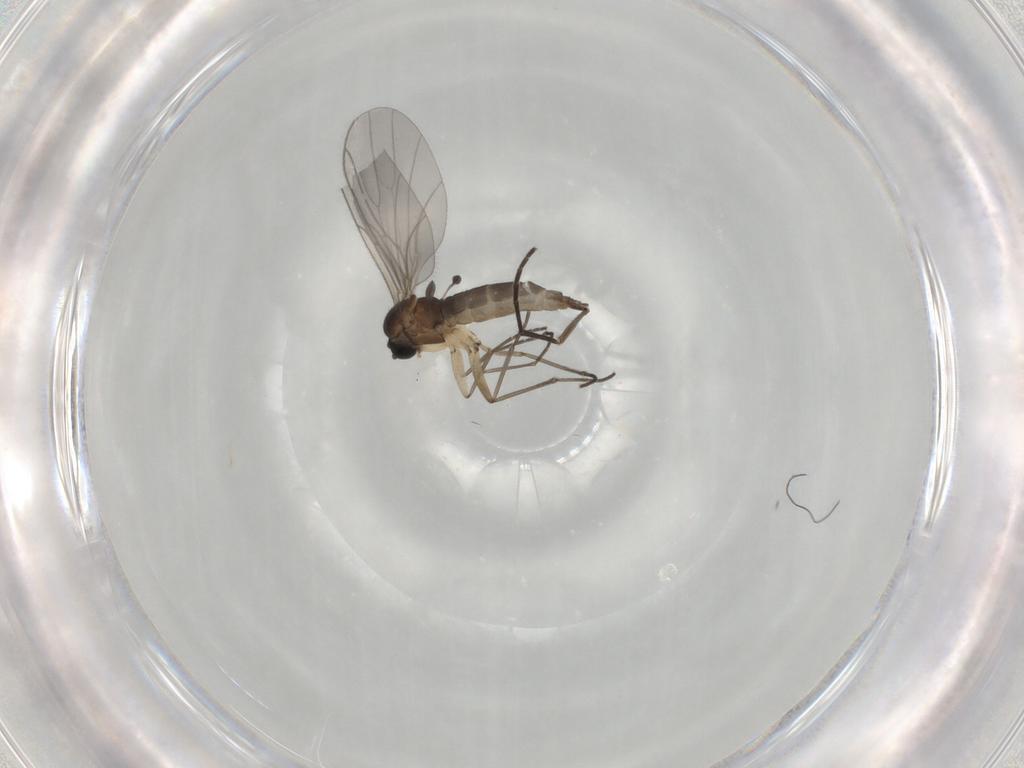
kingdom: Animalia
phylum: Arthropoda
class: Insecta
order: Diptera
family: Sciaridae
